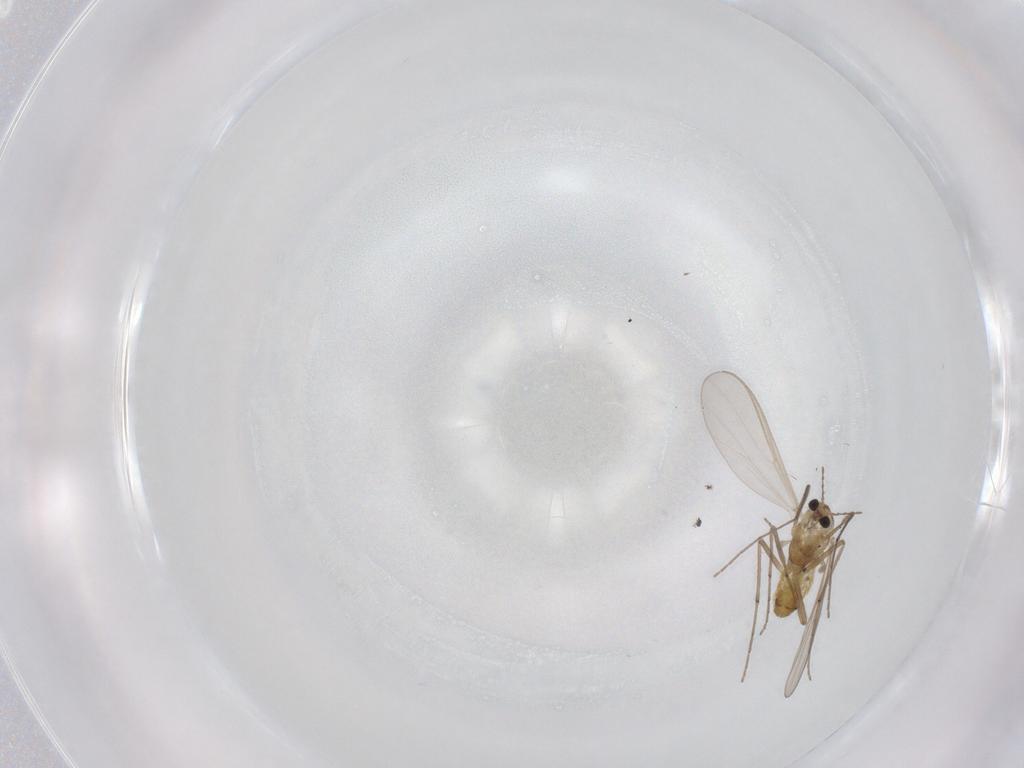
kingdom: Animalia
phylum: Arthropoda
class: Insecta
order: Diptera
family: Chironomidae
